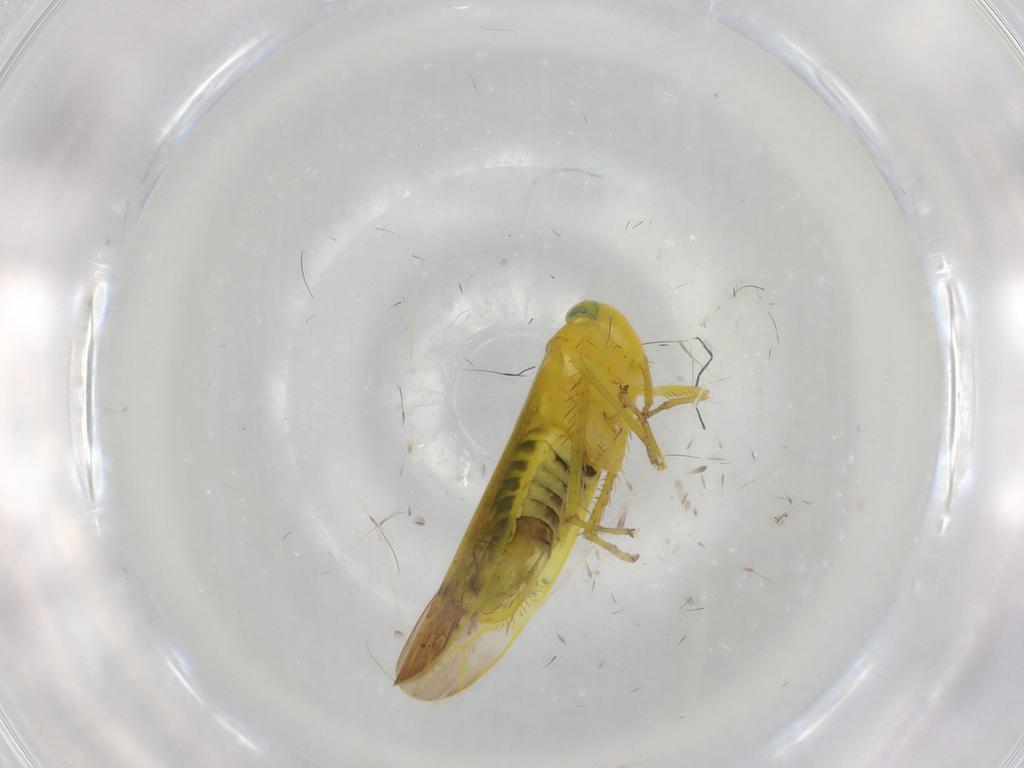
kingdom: Animalia
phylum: Arthropoda
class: Insecta
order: Hemiptera
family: Cicadellidae
